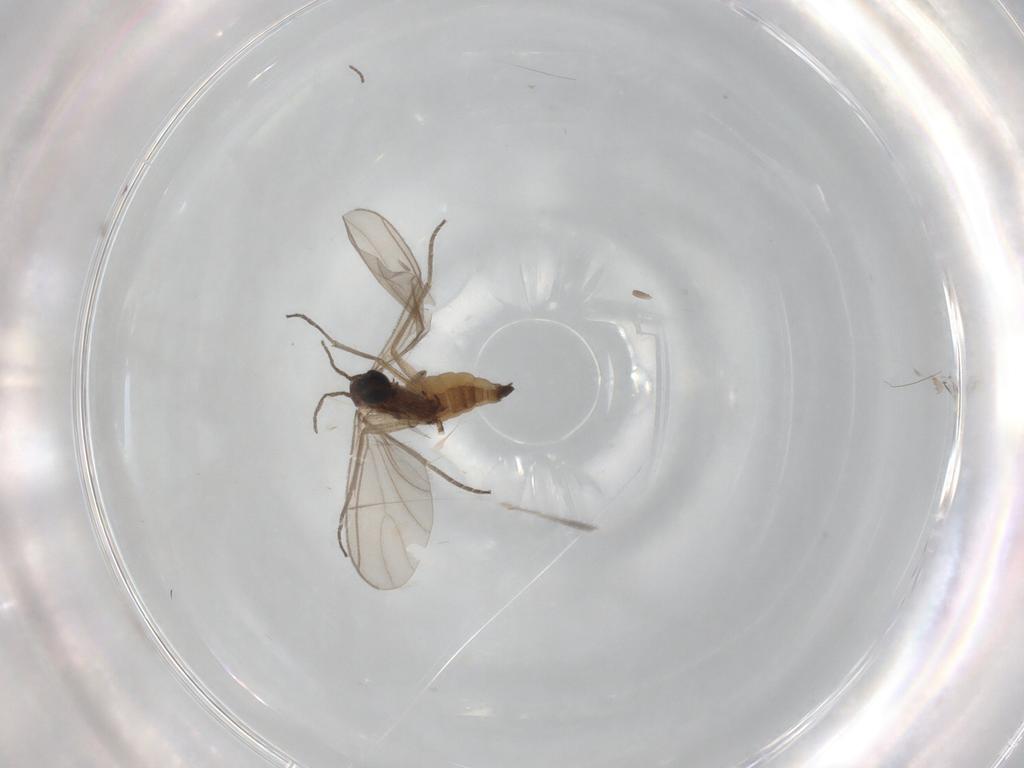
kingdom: Animalia
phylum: Arthropoda
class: Insecta
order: Diptera
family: Sciaridae
